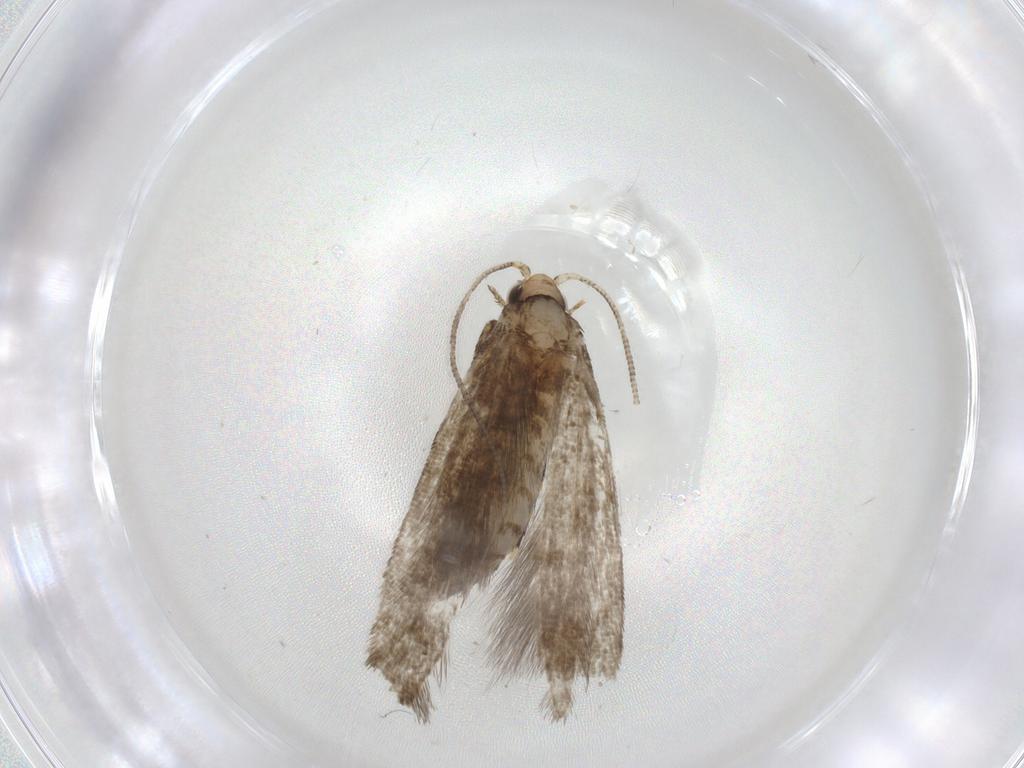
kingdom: Animalia
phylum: Arthropoda
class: Insecta
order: Lepidoptera
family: Tineidae
